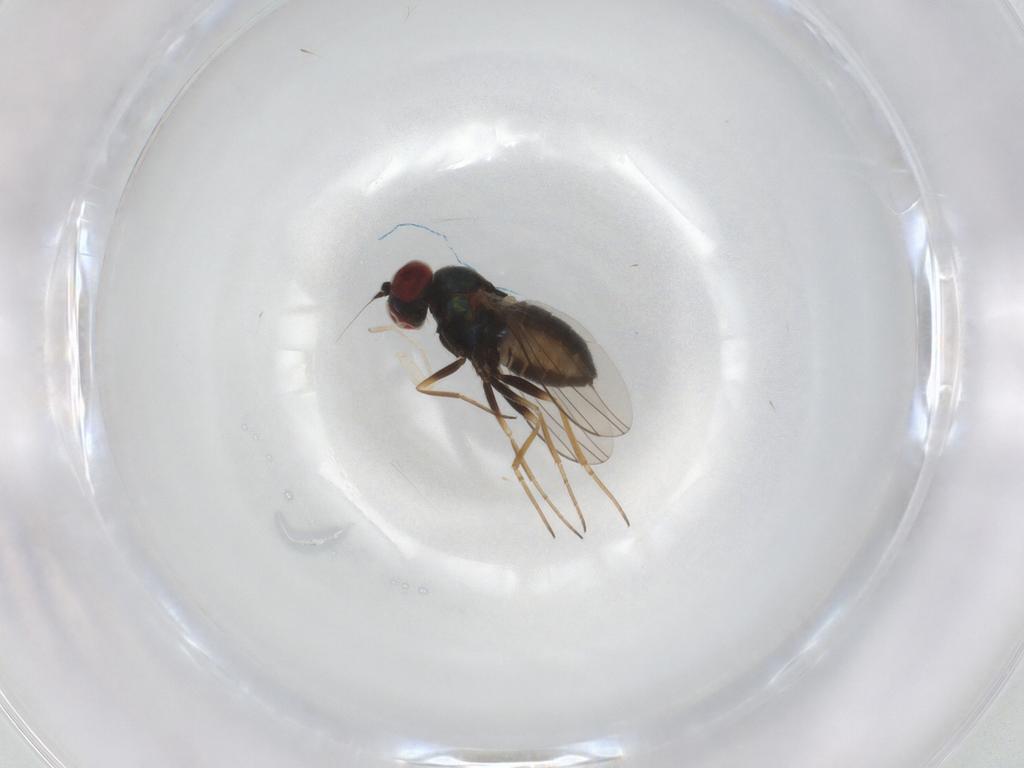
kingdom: Animalia
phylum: Arthropoda
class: Insecta
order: Diptera
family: Dolichopodidae
